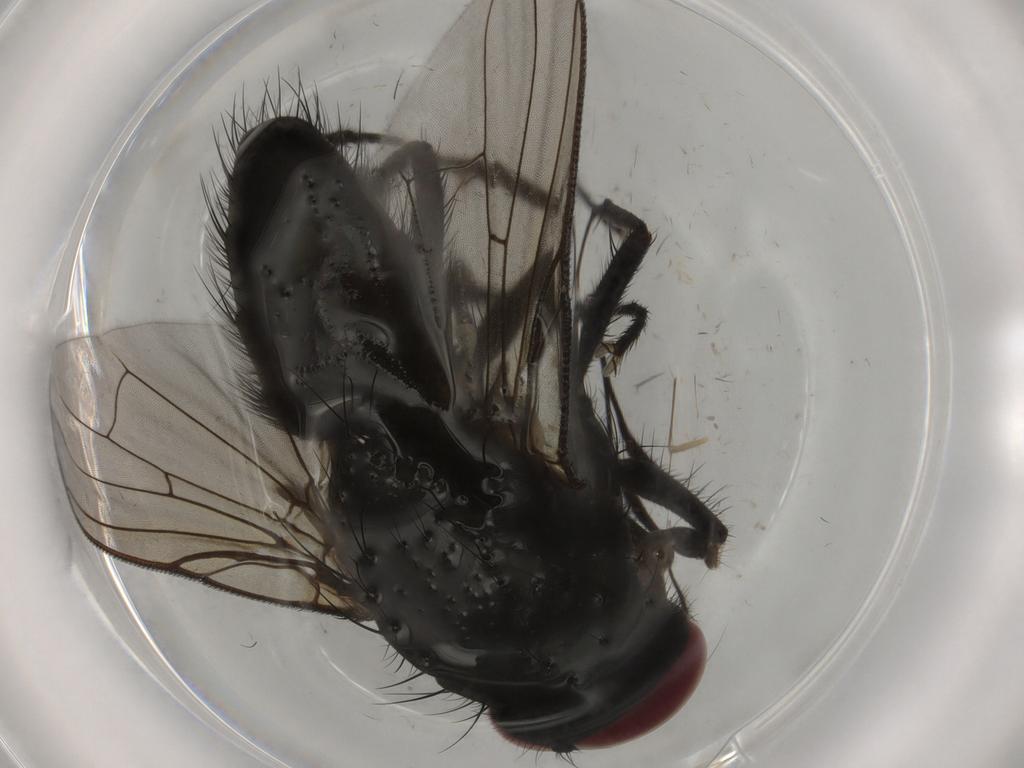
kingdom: Animalia
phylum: Arthropoda
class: Insecta
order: Diptera
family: Muscidae
